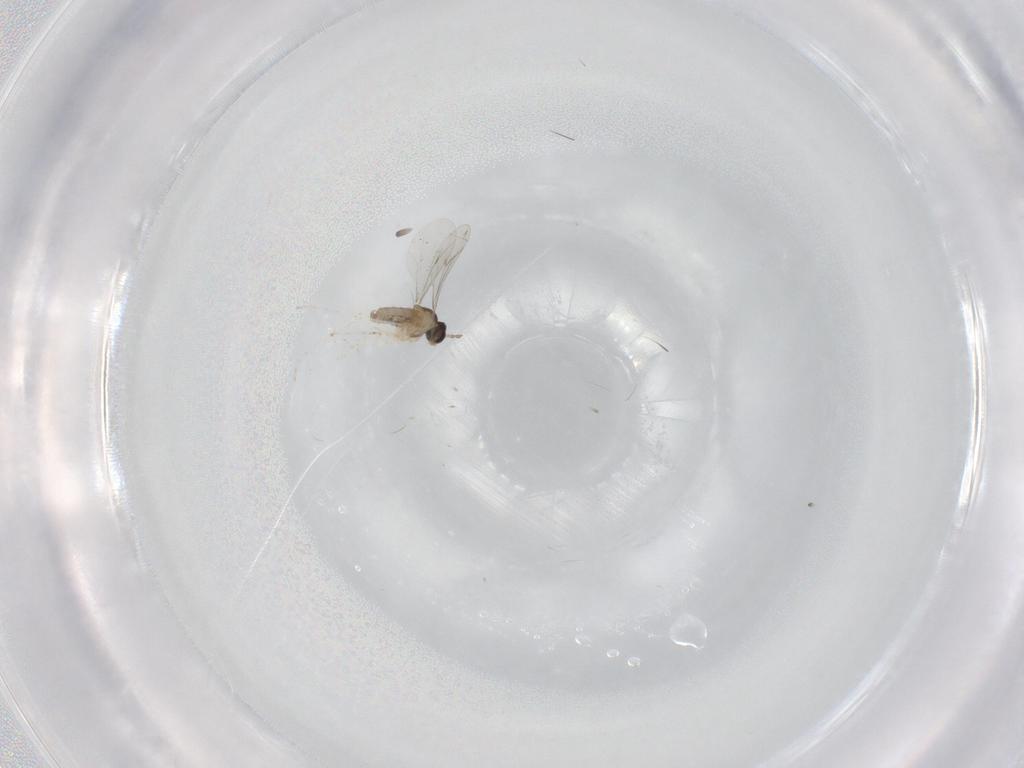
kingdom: Animalia
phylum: Arthropoda
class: Insecta
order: Diptera
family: Cecidomyiidae
